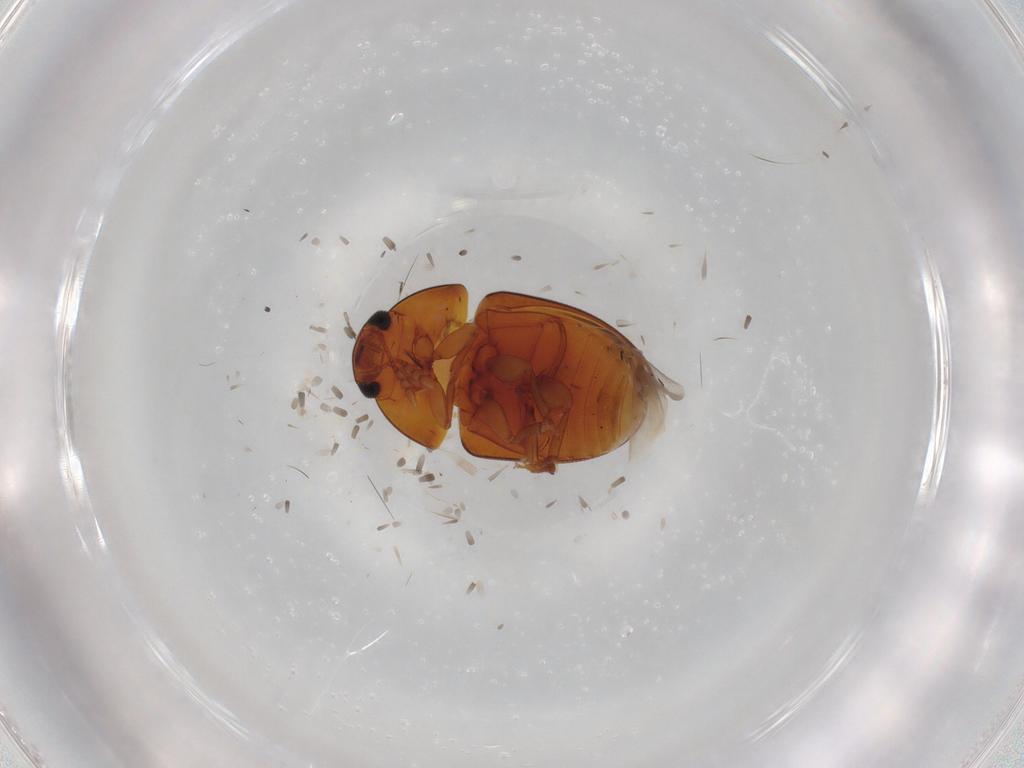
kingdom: Animalia
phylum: Arthropoda
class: Insecta
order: Coleoptera
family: Phalacridae
